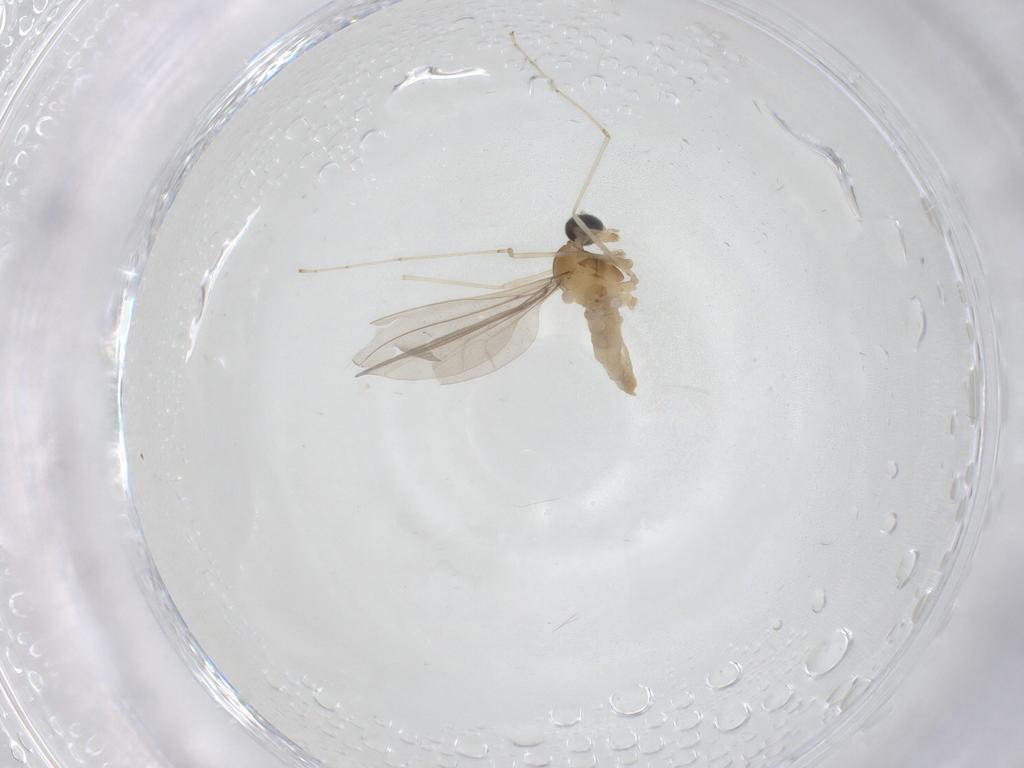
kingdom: Animalia
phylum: Arthropoda
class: Insecta
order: Diptera
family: Cecidomyiidae
